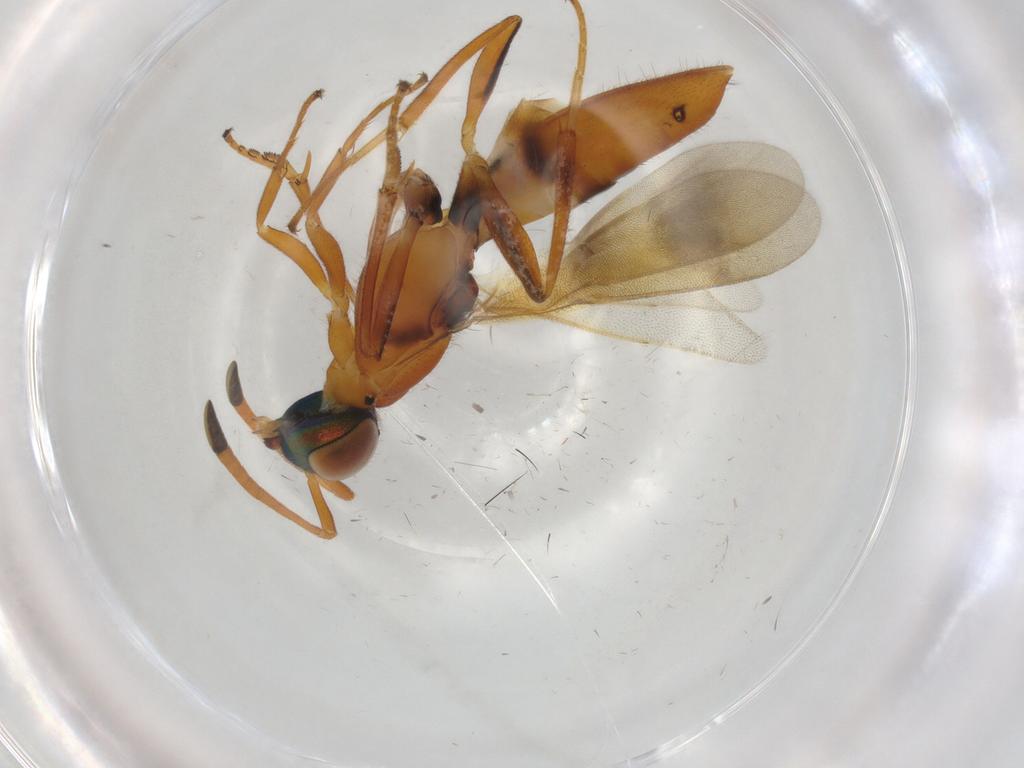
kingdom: Animalia
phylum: Arthropoda
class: Insecta
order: Hymenoptera
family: Eupelmidae
